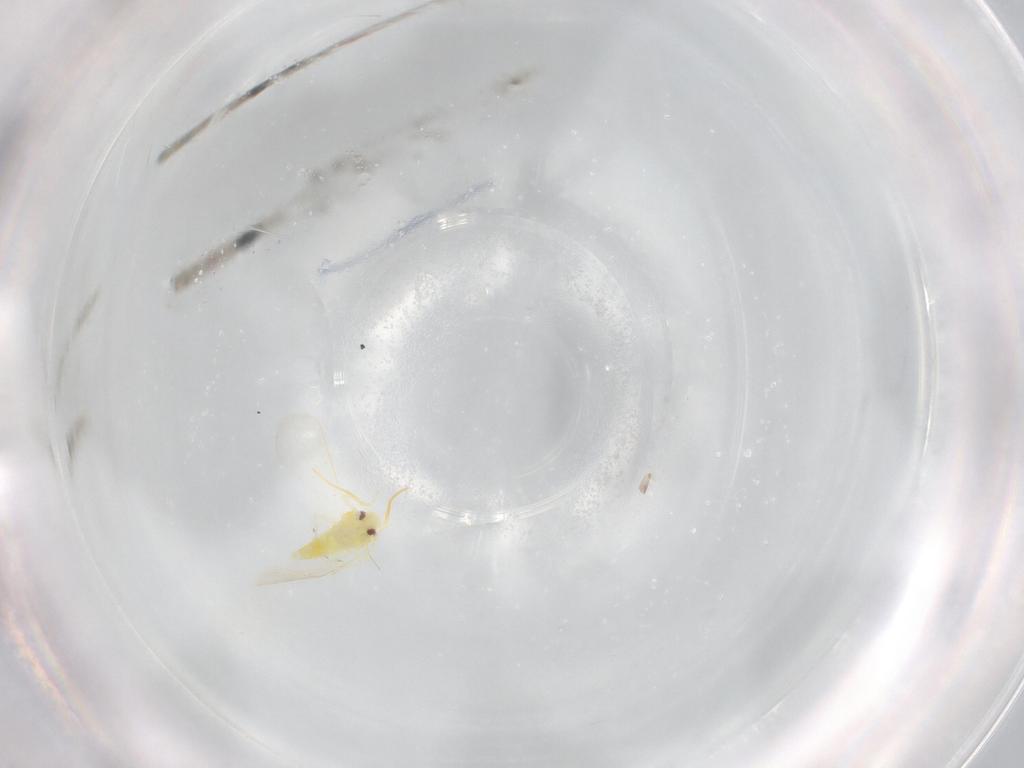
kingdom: Animalia
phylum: Arthropoda
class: Insecta
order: Hemiptera
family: Aleyrodidae
